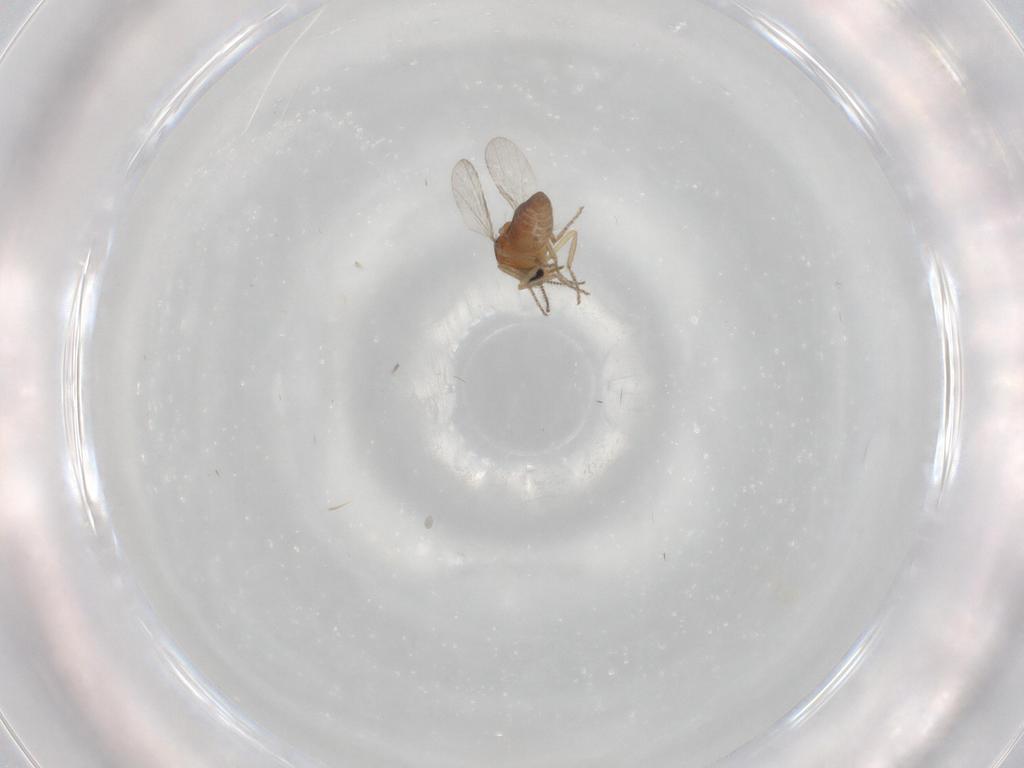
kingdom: Animalia
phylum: Arthropoda
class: Insecta
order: Diptera
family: Ceratopogonidae
